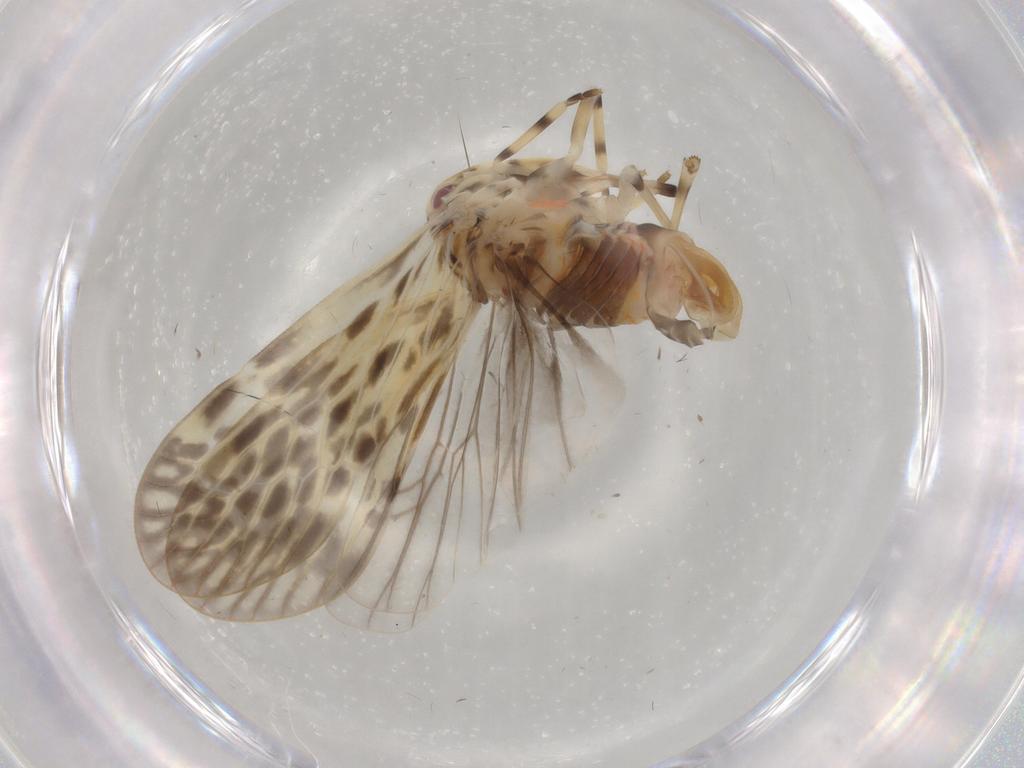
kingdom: Animalia
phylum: Arthropoda
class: Insecta
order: Hemiptera
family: Derbidae
